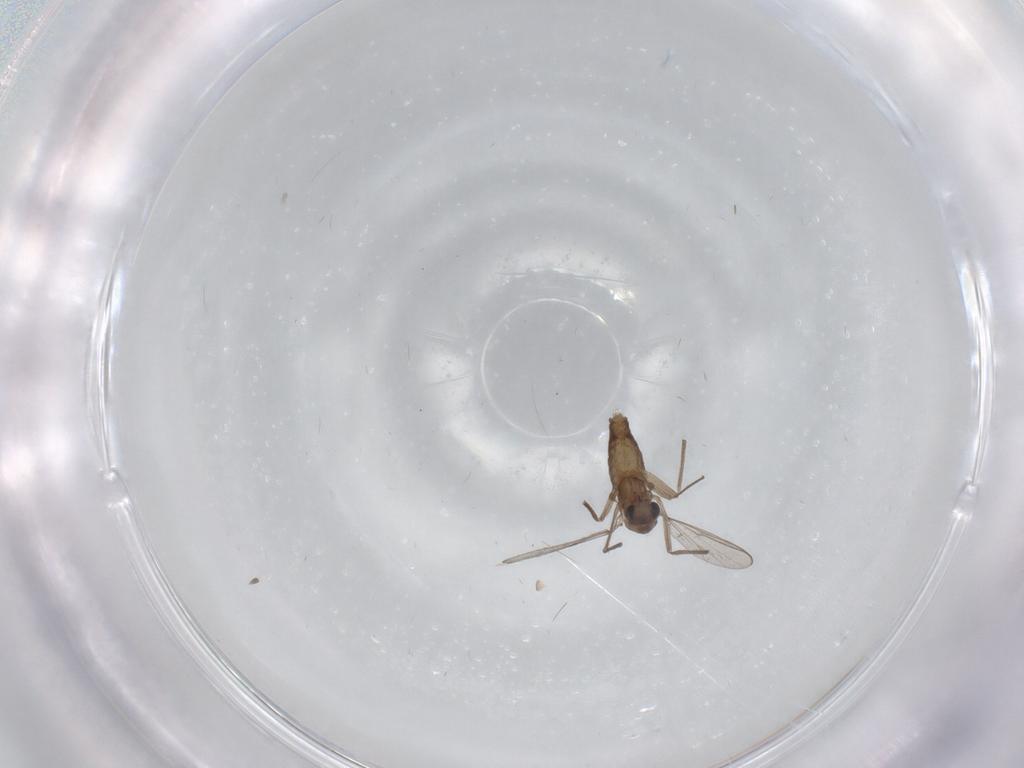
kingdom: Animalia
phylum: Arthropoda
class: Insecta
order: Diptera
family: Chironomidae
